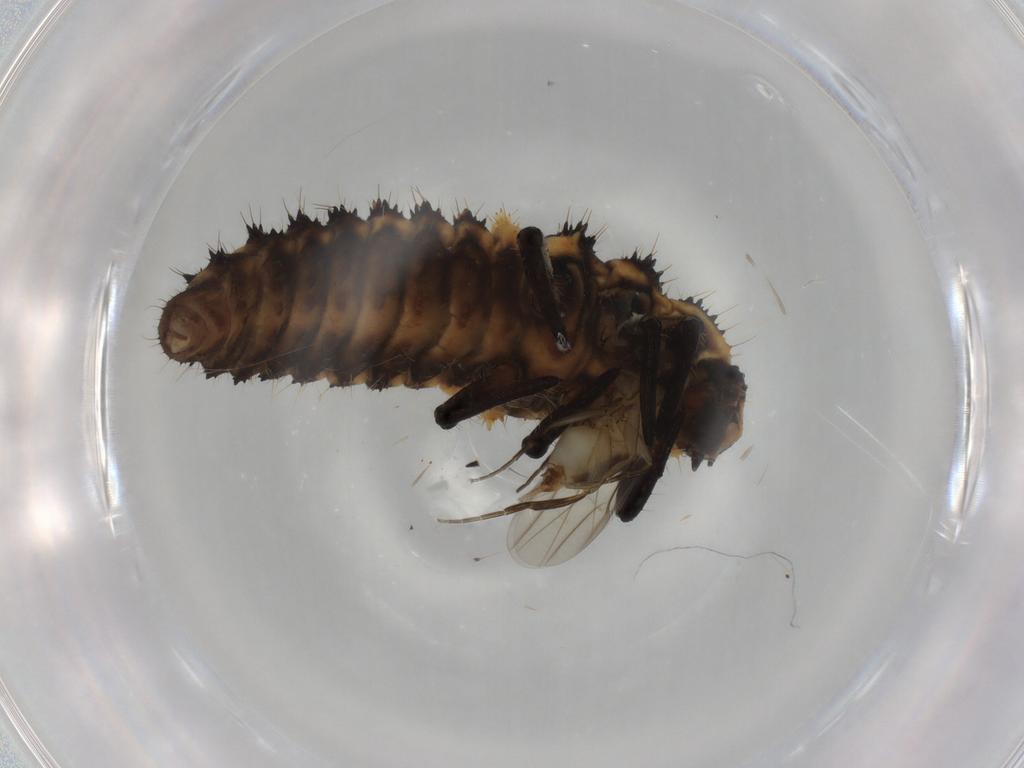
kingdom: Animalia
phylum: Arthropoda
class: Insecta
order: Diptera
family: Phoridae
